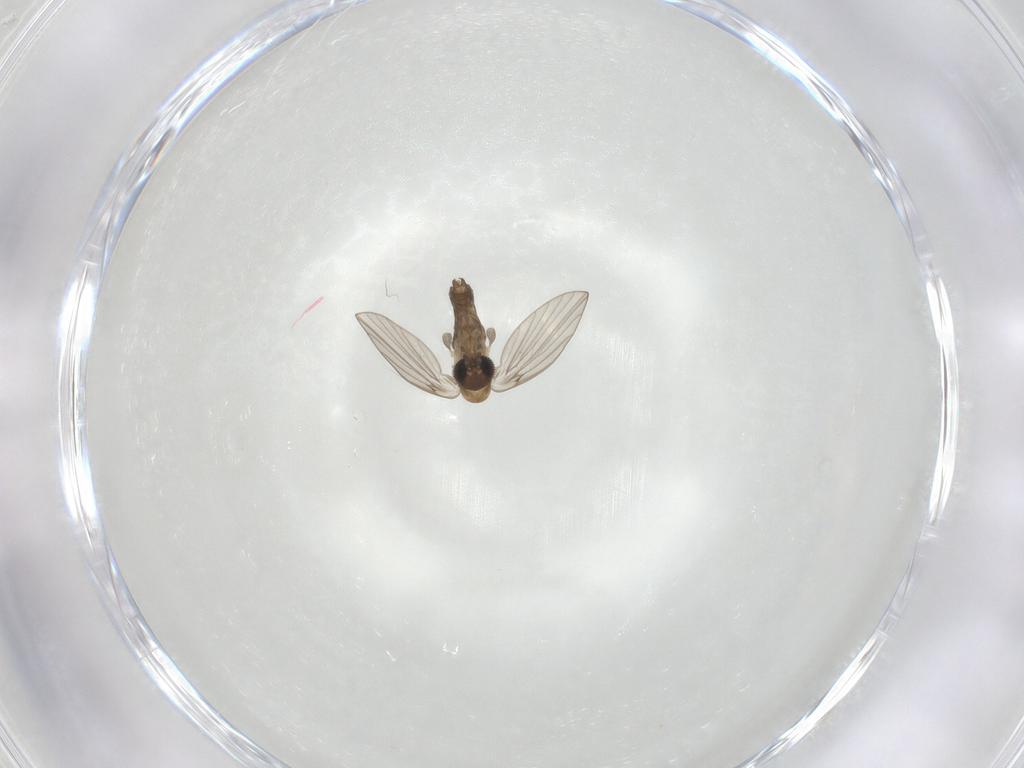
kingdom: Animalia
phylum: Arthropoda
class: Insecta
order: Diptera
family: Psychodidae
